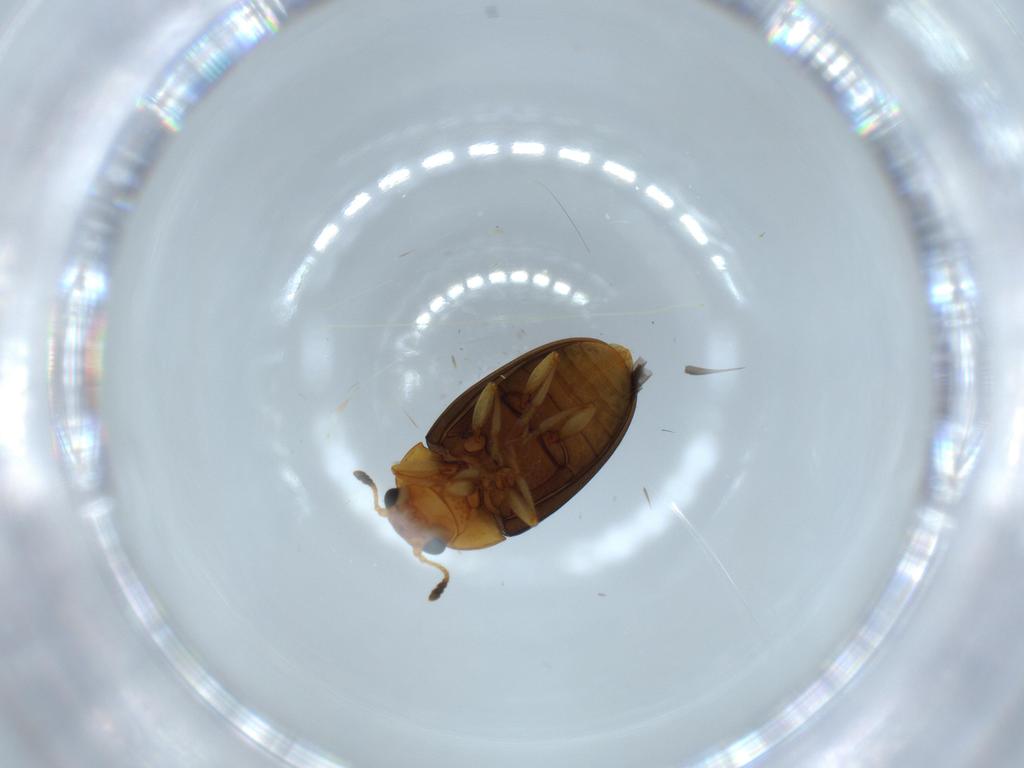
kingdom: Animalia
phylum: Arthropoda
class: Insecta
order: Coleoptera
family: Erotylidae
